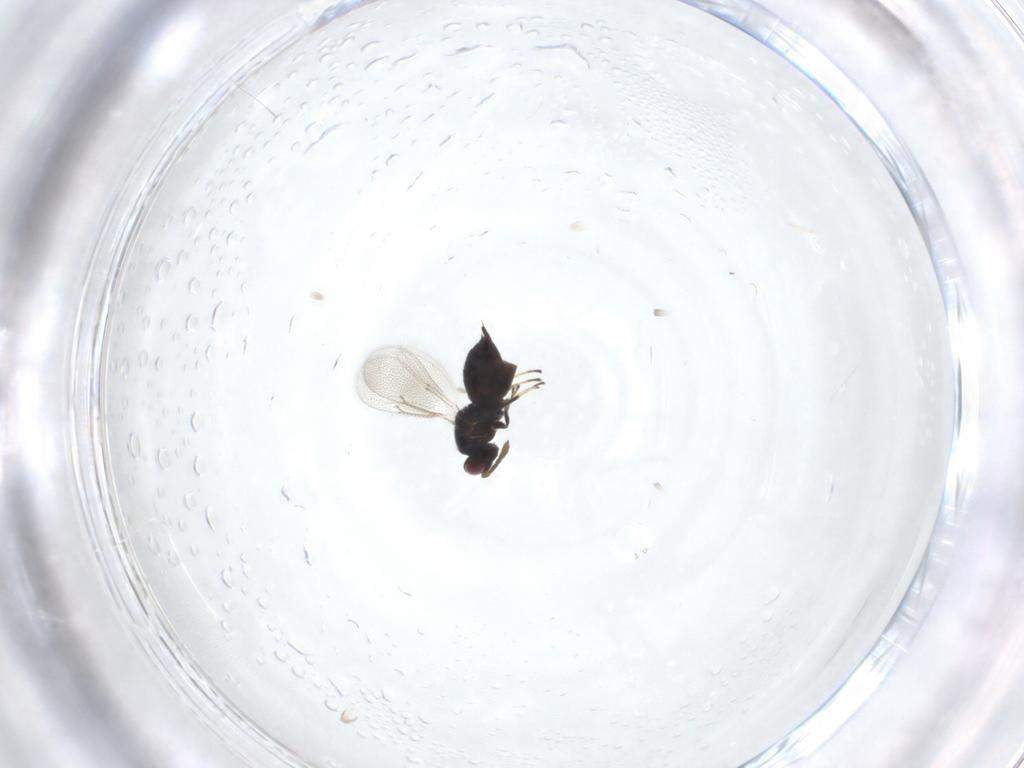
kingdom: Animalia
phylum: Arthropoda
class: Insecta
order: Hymenoptera
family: Eulophidae
